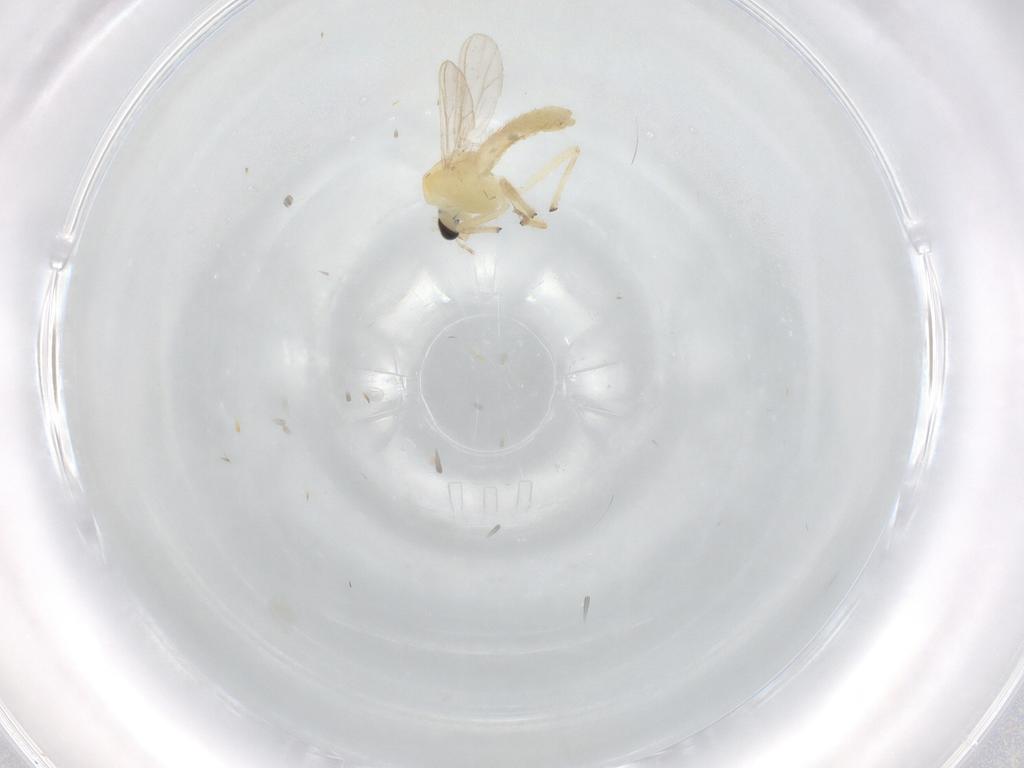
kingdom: Animalia
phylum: Arthropoda
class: Insecta
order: Diptera
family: Chironomidae
